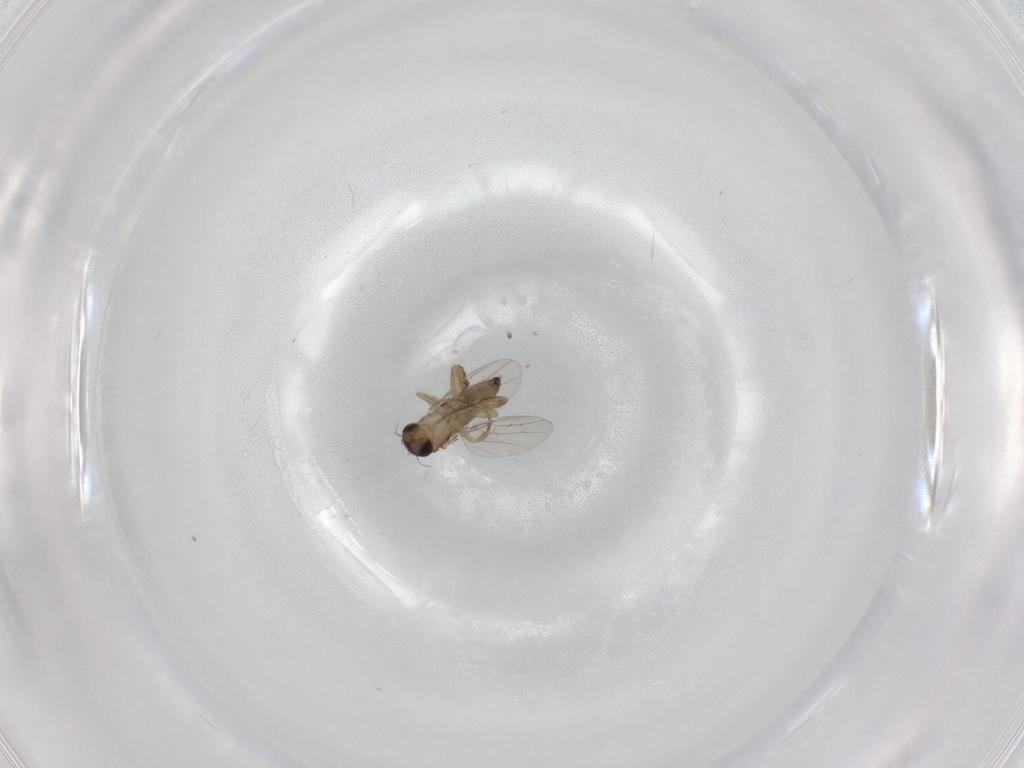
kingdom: Animalia
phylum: Arthropoda
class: Insecta
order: Diptera
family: Phoridae
